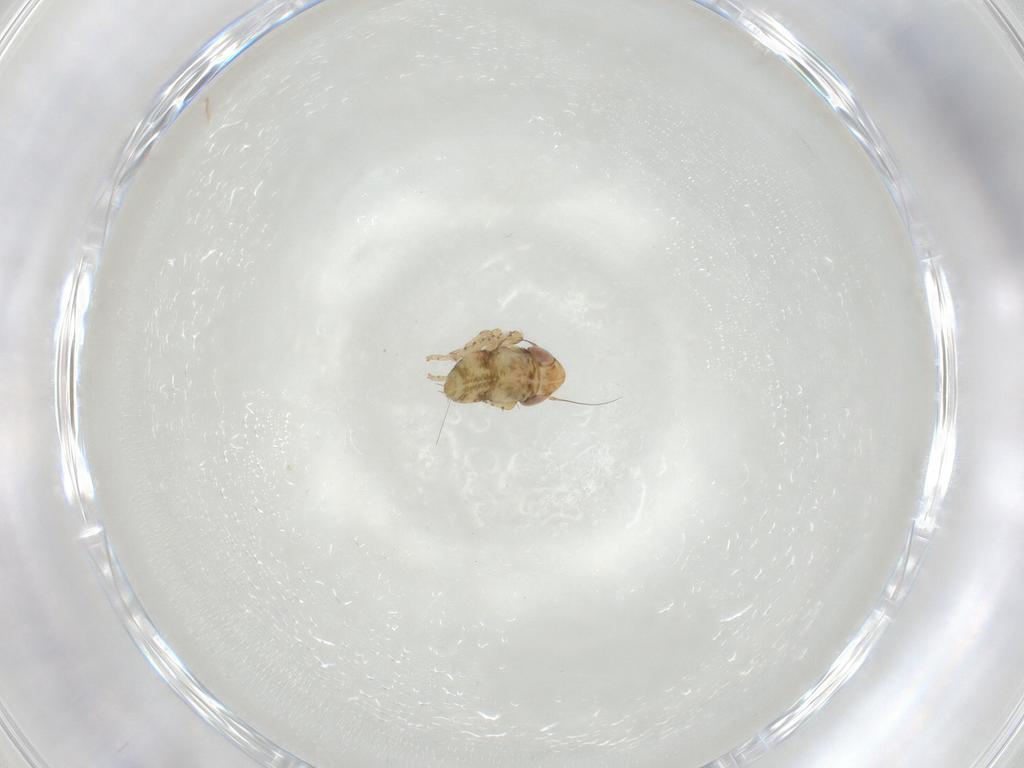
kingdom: Animalia
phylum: Arthropoda
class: Insecta
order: Hemiptera
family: Cicadellidae
